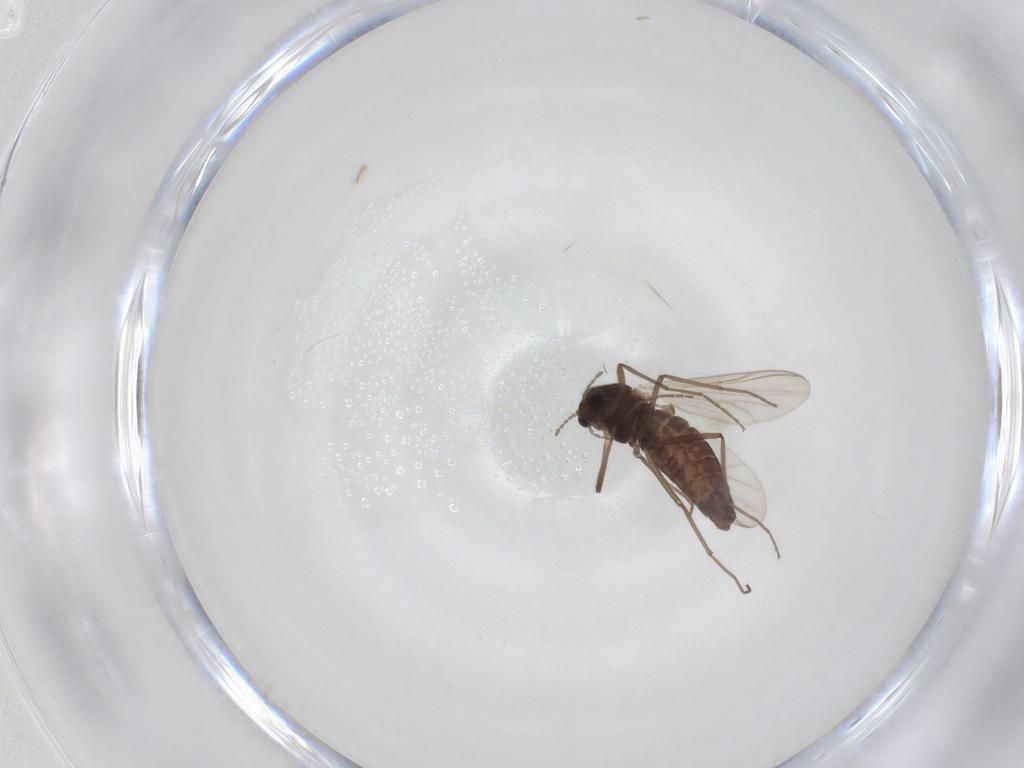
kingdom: Animalia
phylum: Arthropoda
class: Insecta
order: Diptera
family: Chironomidae
